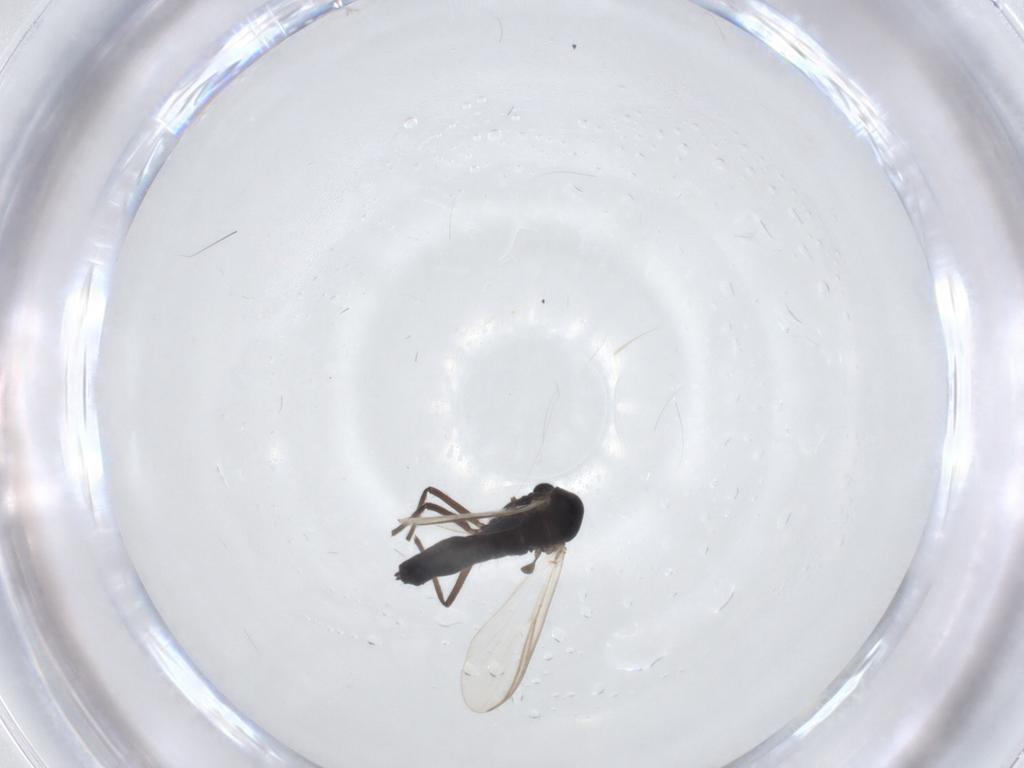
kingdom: Animalia
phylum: Arthropoda
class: Insecta
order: Diptera
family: Chironomidae
